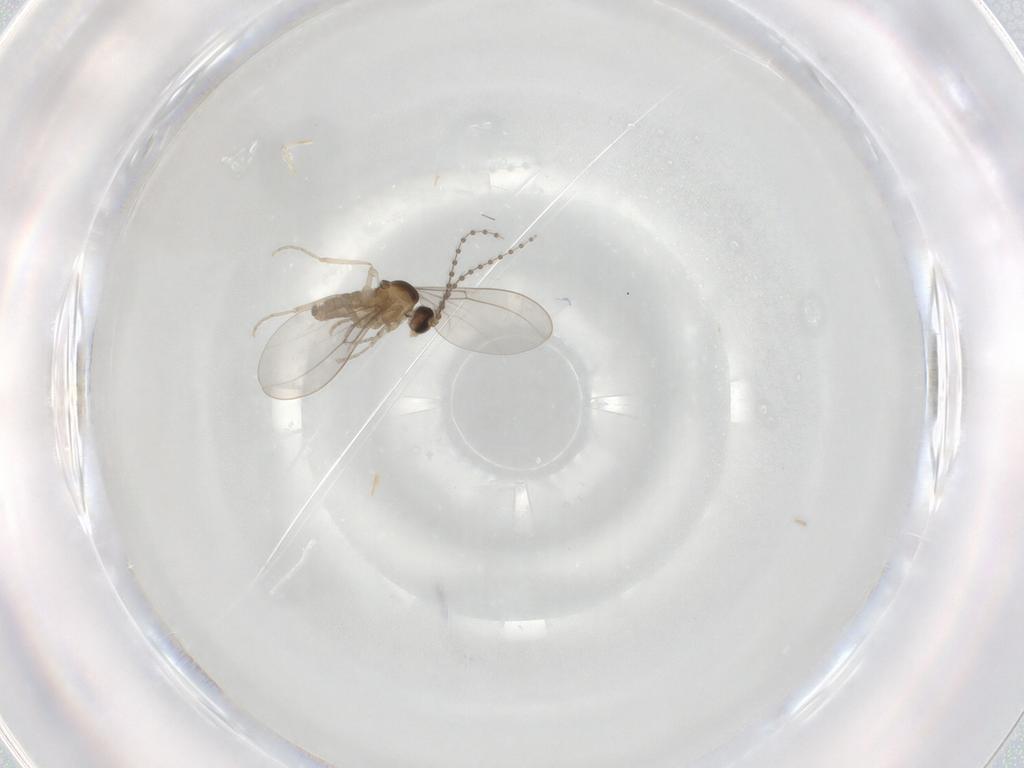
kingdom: Animalia
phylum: Arthropoda
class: Insecta
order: Diptera
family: Cecidomyiidae
